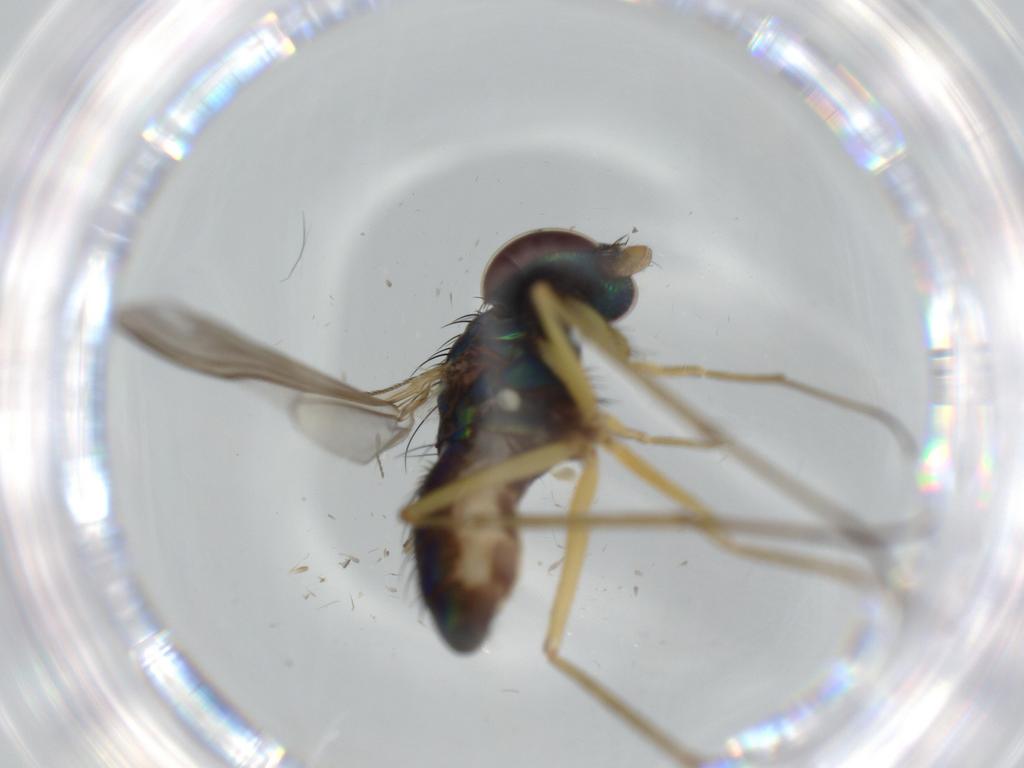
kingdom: Animalia
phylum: Arthropoda
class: Insecta
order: Diptera
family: Dolichopodidae
